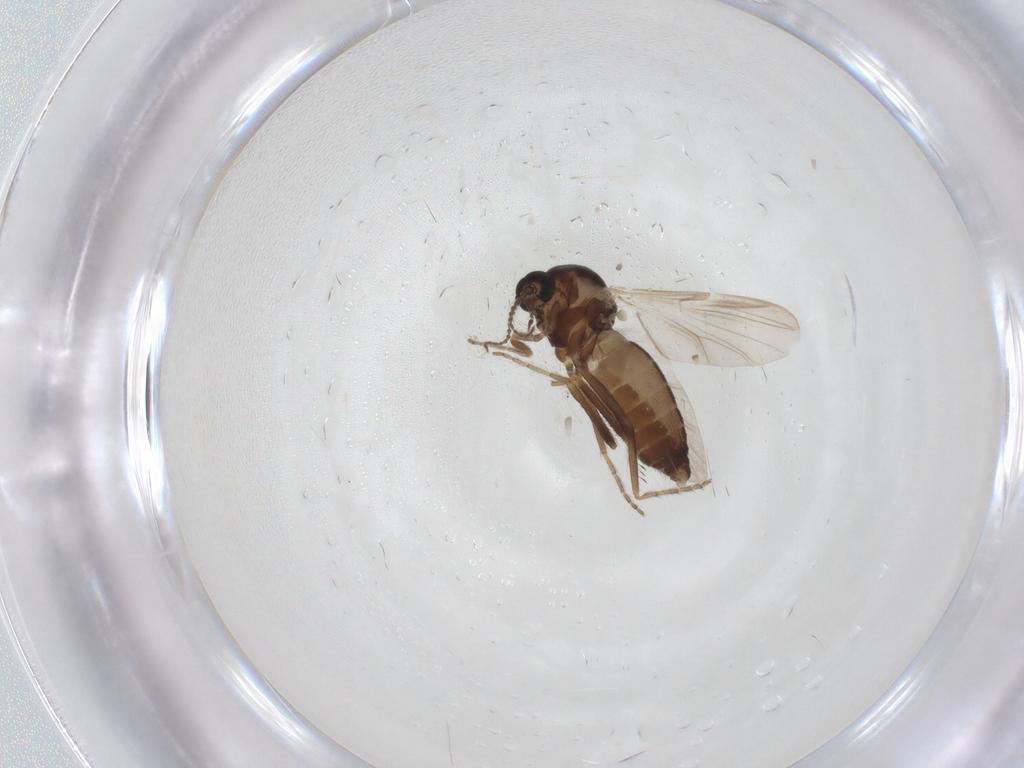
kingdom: Animalia
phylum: Arthropoda
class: Insecta
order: Diptera
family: Ceratopogonidae
